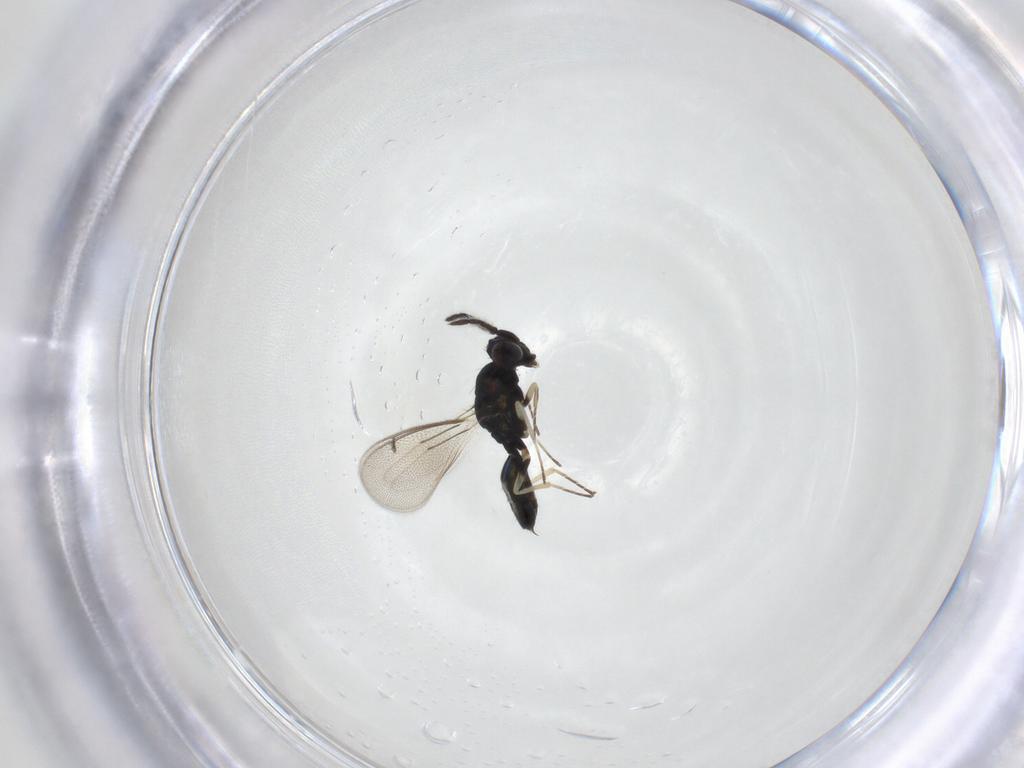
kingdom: Animalia
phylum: Arthropoda
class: Insecta
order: Hymenoptera
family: Eulophidae
